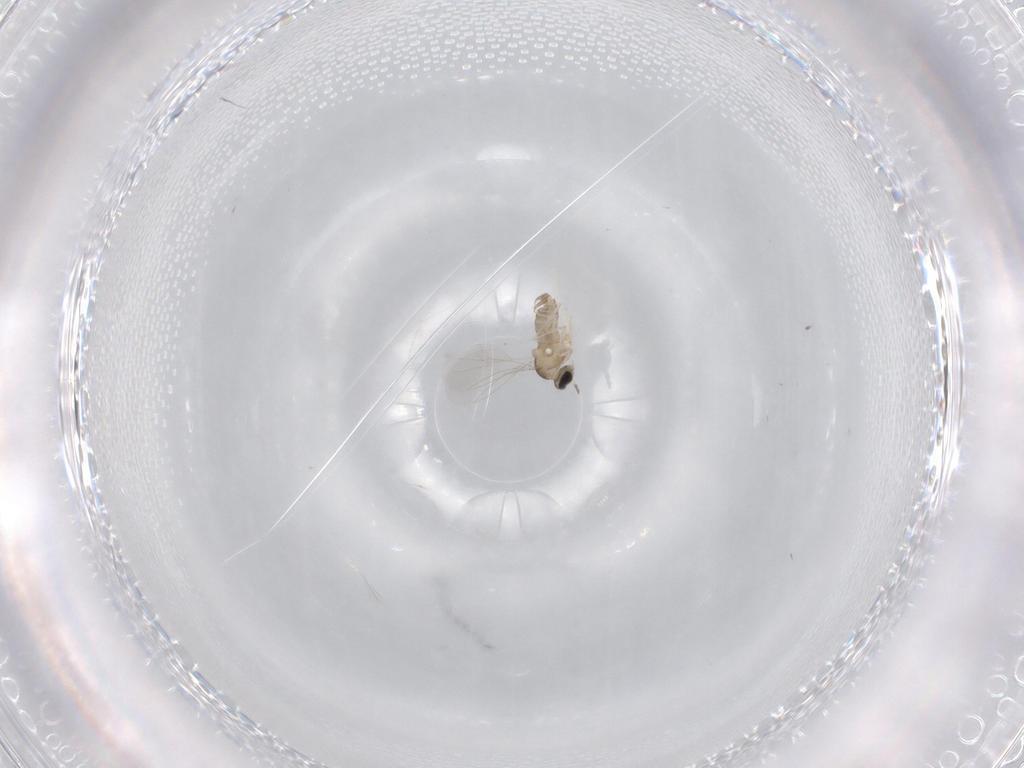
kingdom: Animalia
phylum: Arthropoda
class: Insecta
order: Diptera
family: Cecidomyiidae
